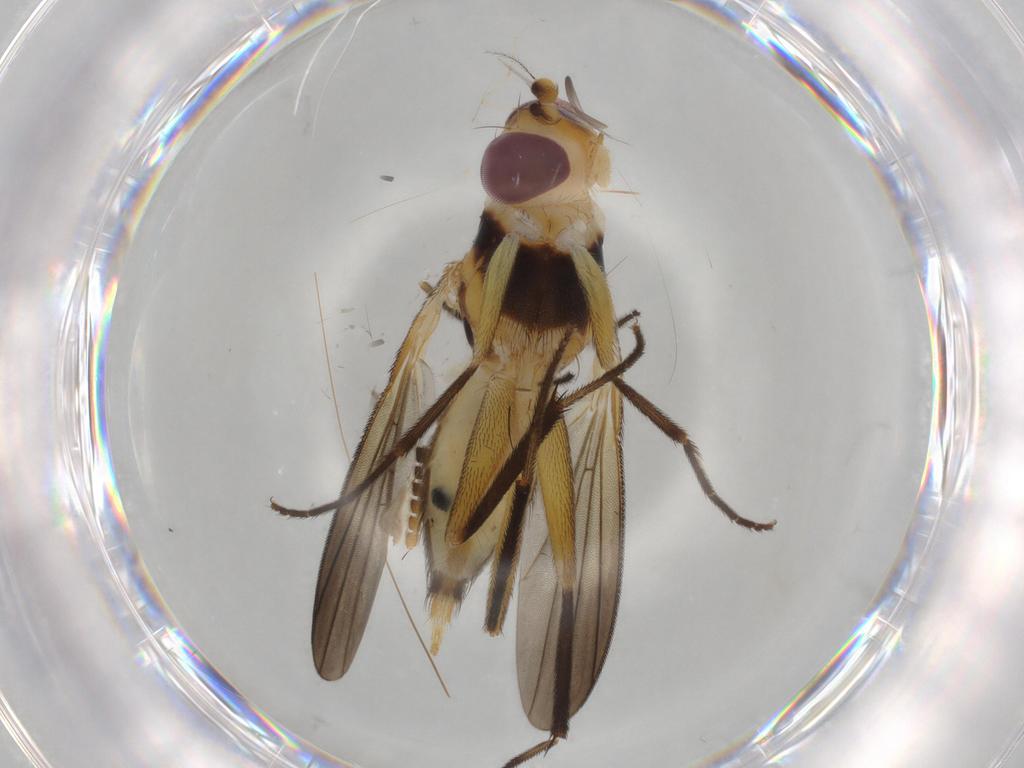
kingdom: Animalia
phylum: Arthropoda
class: Insecta
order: Diptera
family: Clusiidae
